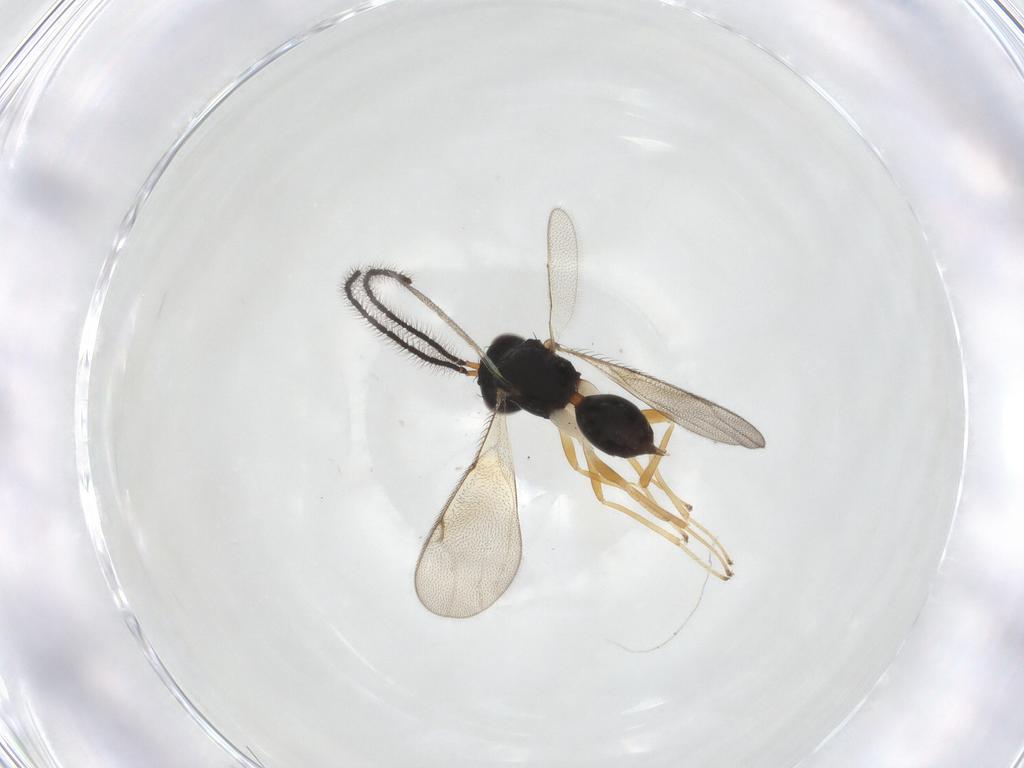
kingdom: Animalia
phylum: Arthropoda
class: Insecta
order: Hymenoptera
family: Diparidae
